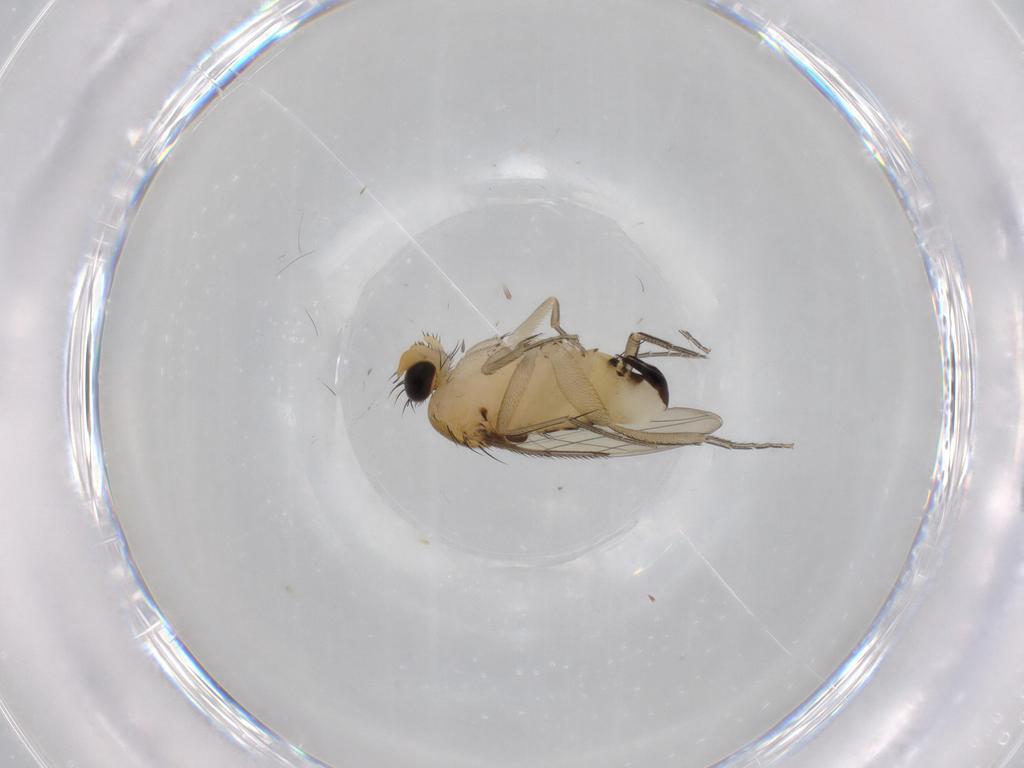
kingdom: Animalia
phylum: Arthropoda
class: Insecta
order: Diptera
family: Phoridae
